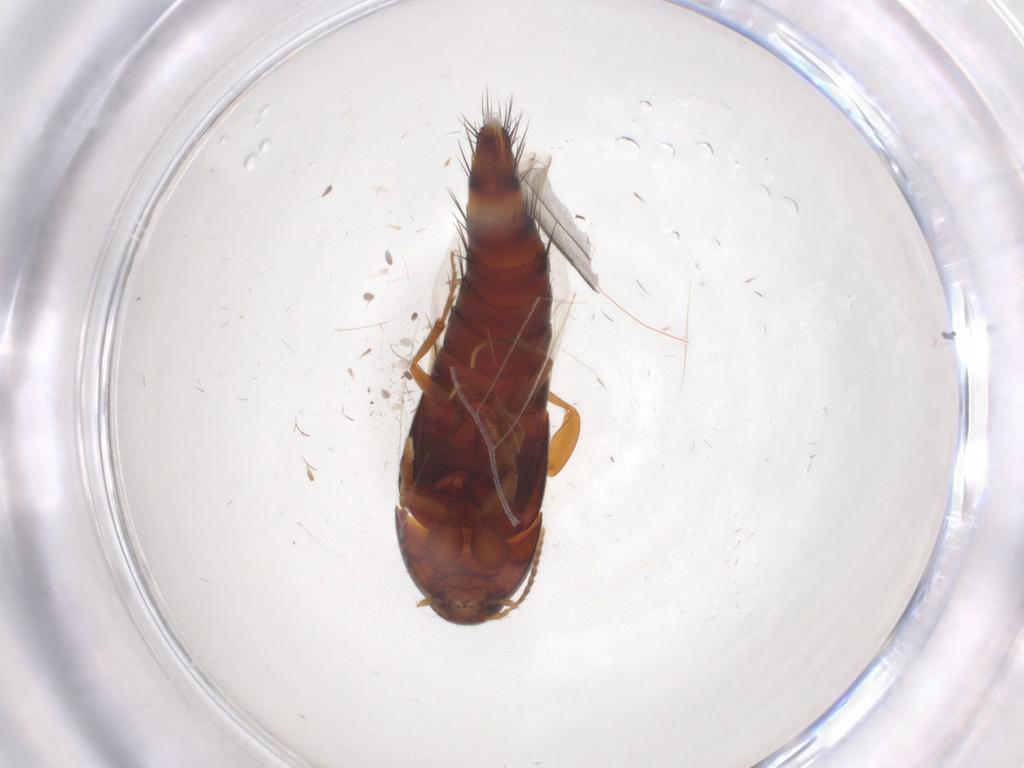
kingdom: Animalia
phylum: Arthropoda
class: Insecta
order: Coleoptera
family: Staphylinidae
